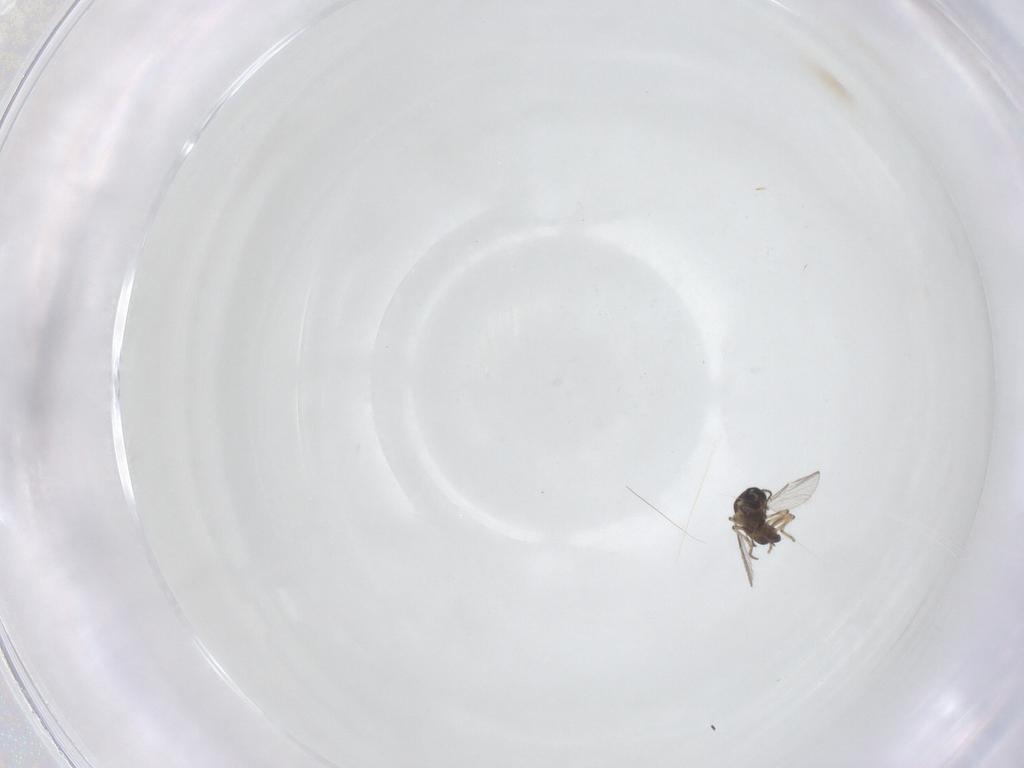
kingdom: Animalia
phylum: Arthropoda
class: Insecta
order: Diptera
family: Ceratopogonidae
